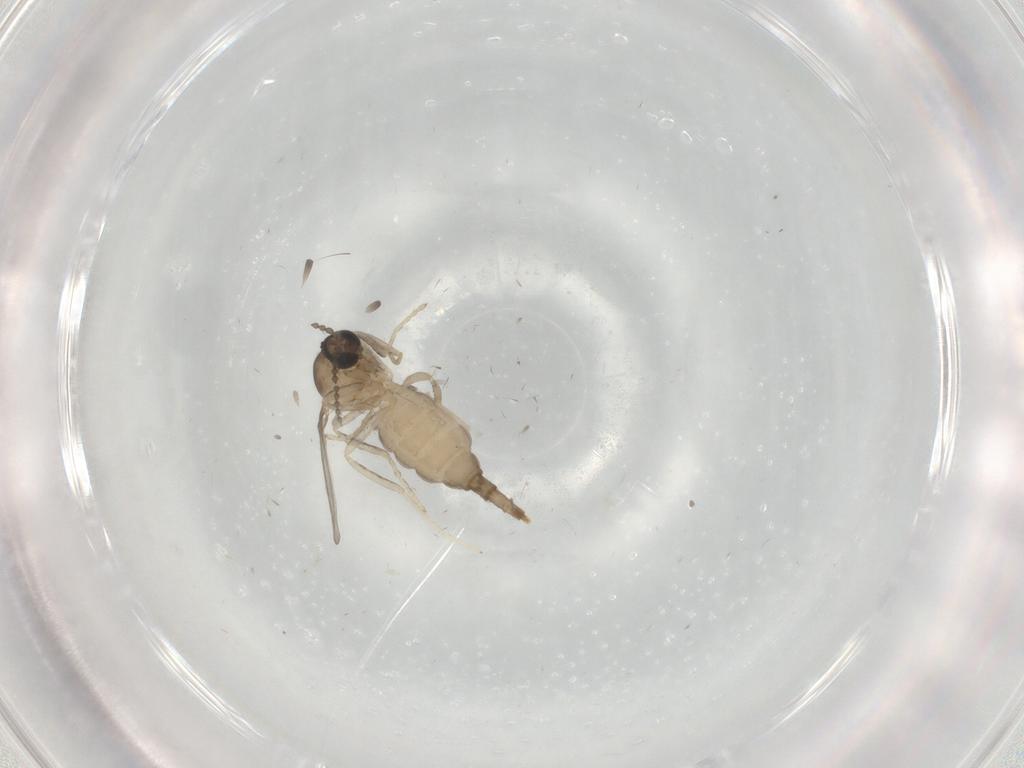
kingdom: Animalia
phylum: Arthropoda
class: Insecta
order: Diptera
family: Cecidomyiidae
